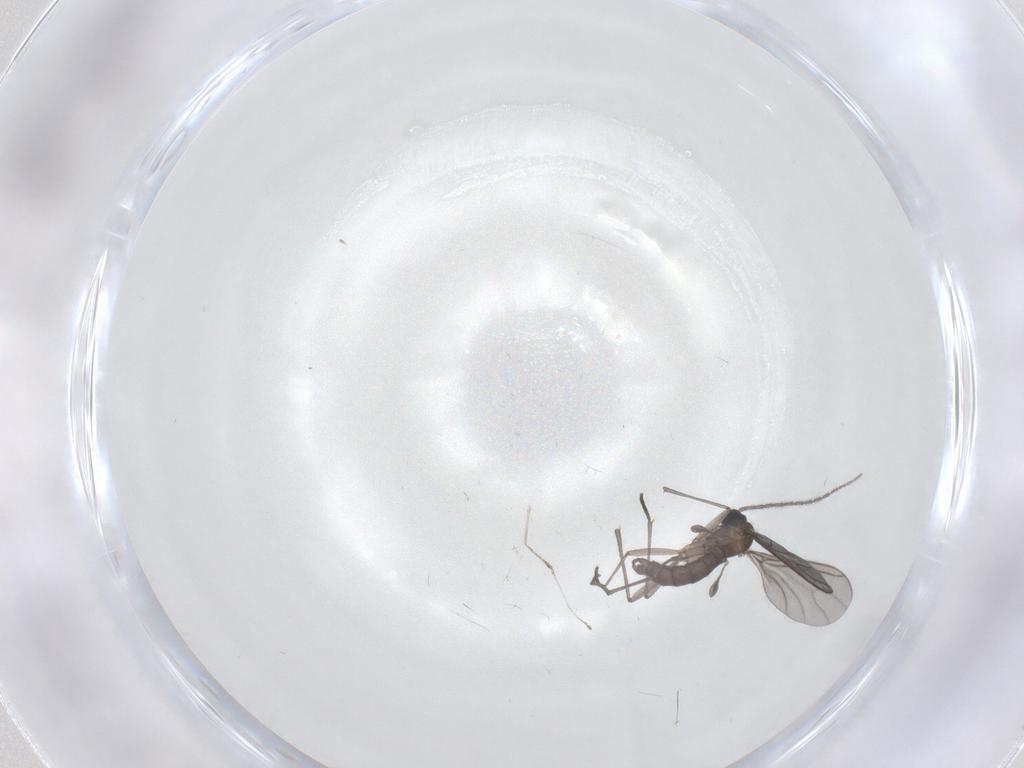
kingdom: Animalia
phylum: Arthropoda
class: Insecta
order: Diptera
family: Sciaridae
